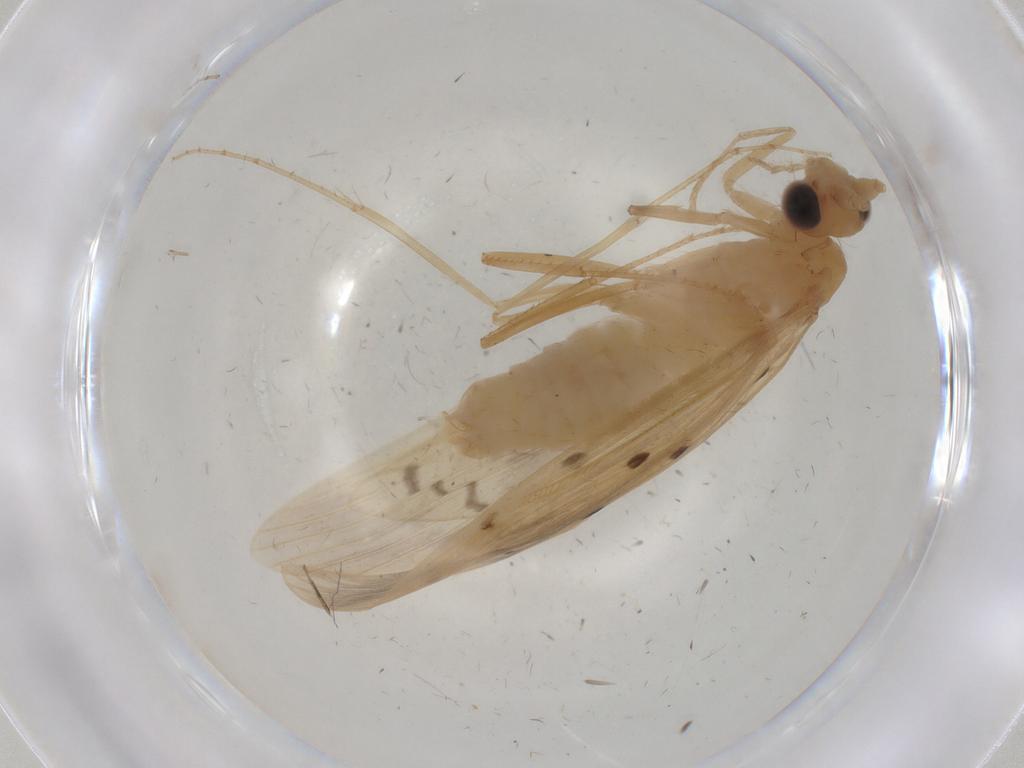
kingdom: Animalia
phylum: Arthropoda
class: Insecta
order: Trichoptera
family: Leptoceridae
